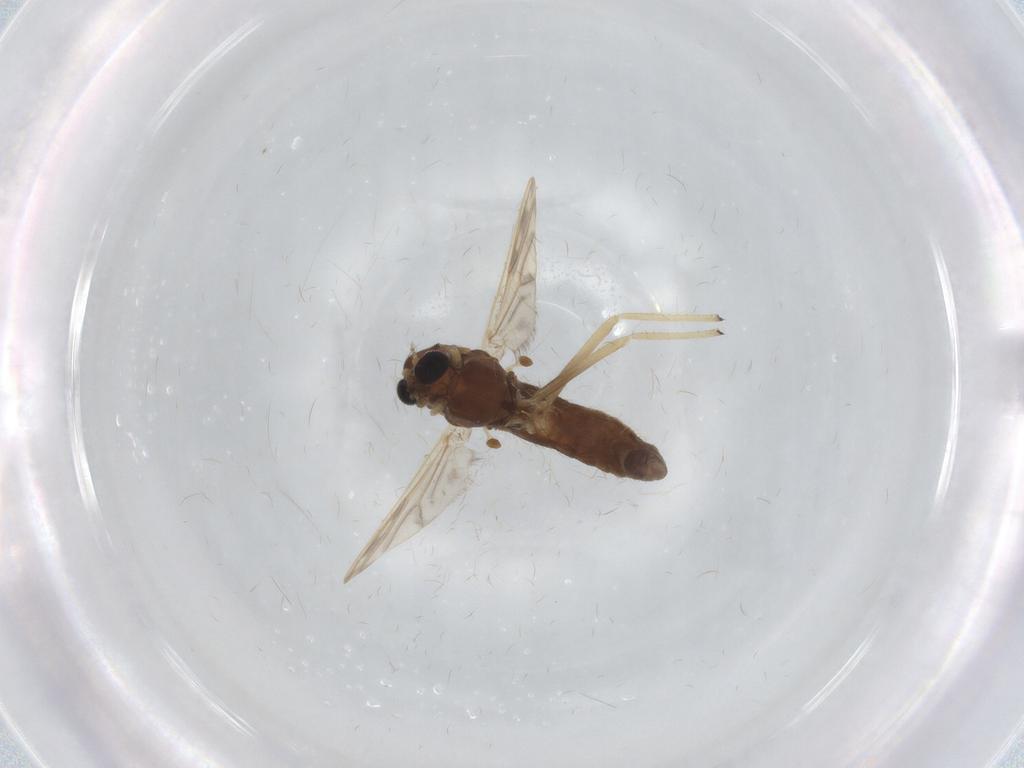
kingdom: Animalia
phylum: Arthropoda
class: Insecta
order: Diptera
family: Chironomidae
